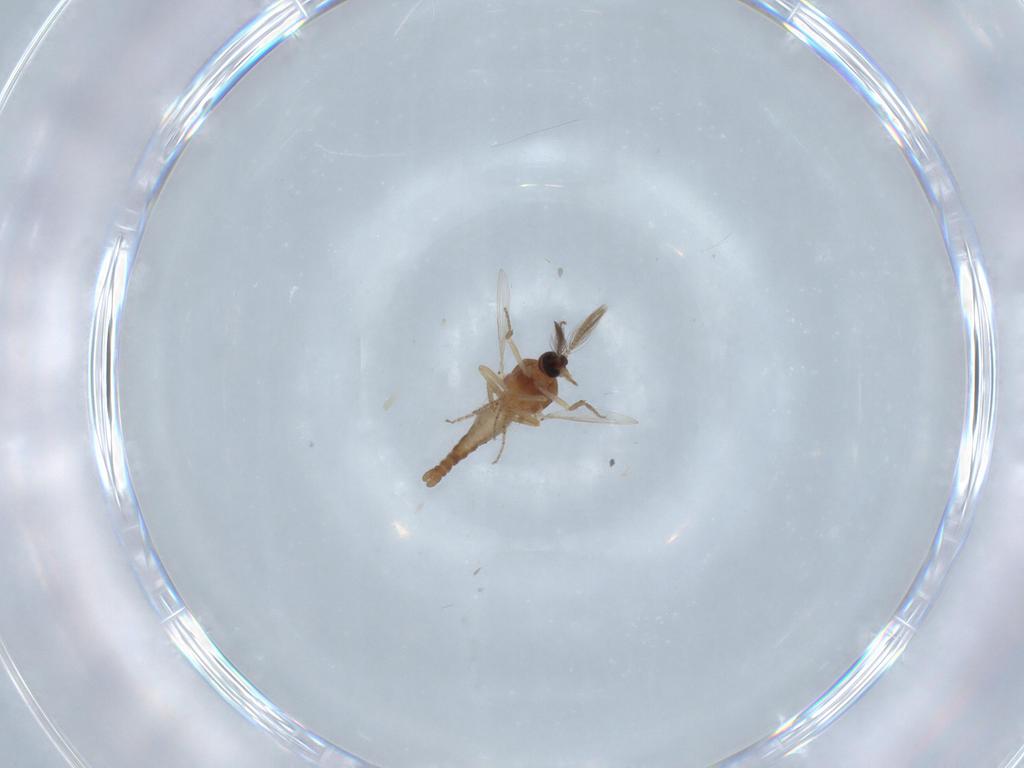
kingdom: Animalia
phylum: Arthropoda
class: Insecta
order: Diptera
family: Ceratopogonidae
